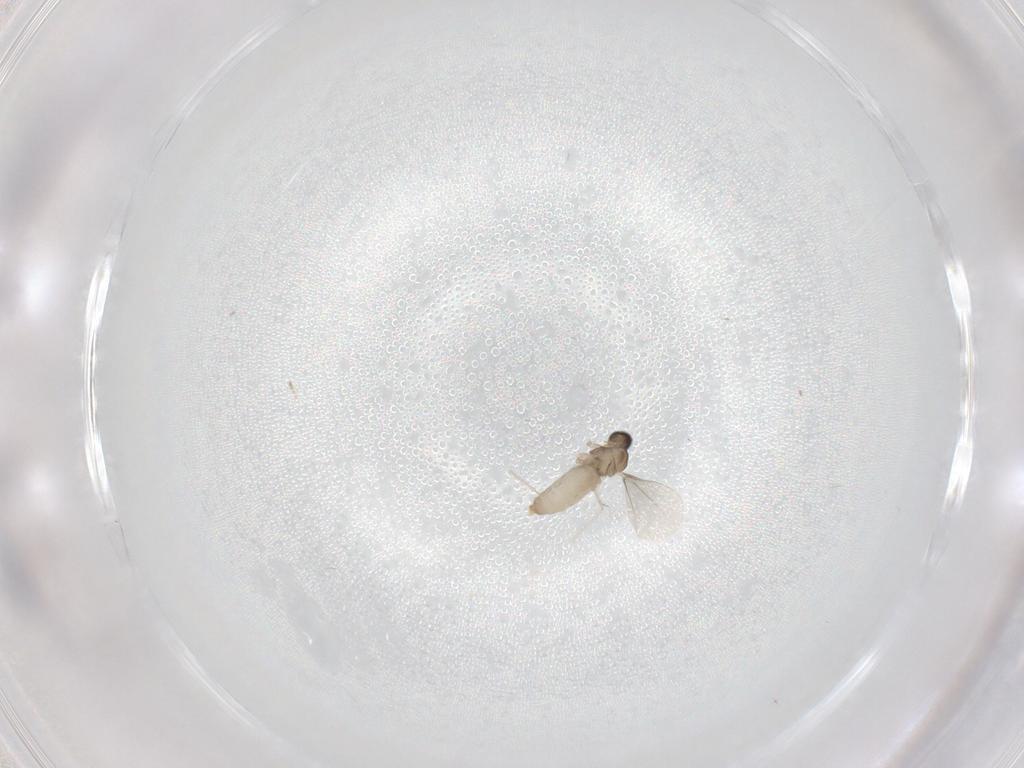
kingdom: Animalia
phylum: Arthropoda
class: Insecta
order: Diptera
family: Cecidomyiidae
